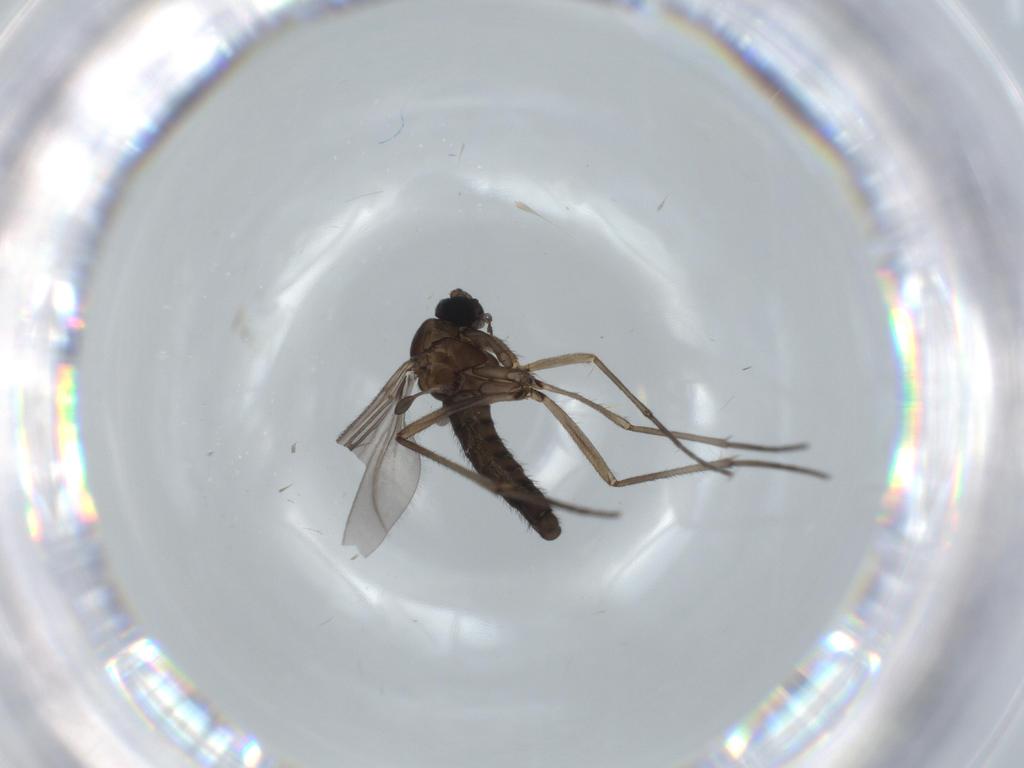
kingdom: Animalia
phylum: Arthropoda
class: Insecta
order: Diptera
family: Sciaridae
